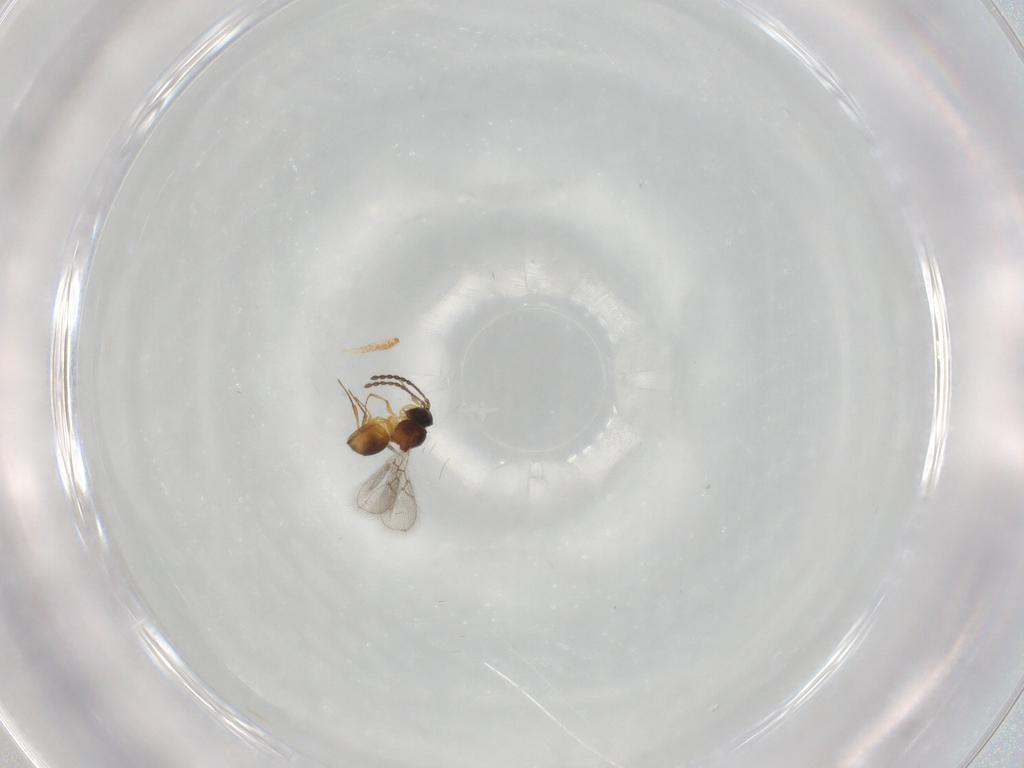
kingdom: Animalia
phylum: Arthropoda
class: Insecta
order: Hymenoptera
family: Figitidae
